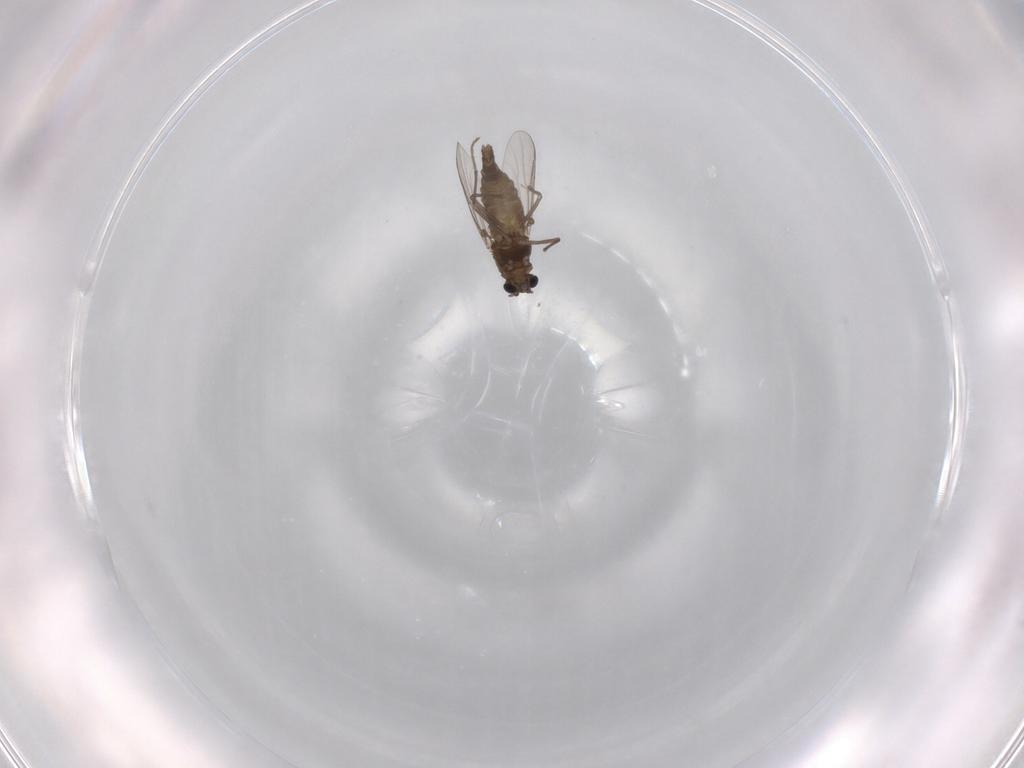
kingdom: Animalia
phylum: Arthropoda
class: Insecta
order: Diptera
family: Chironomidae
